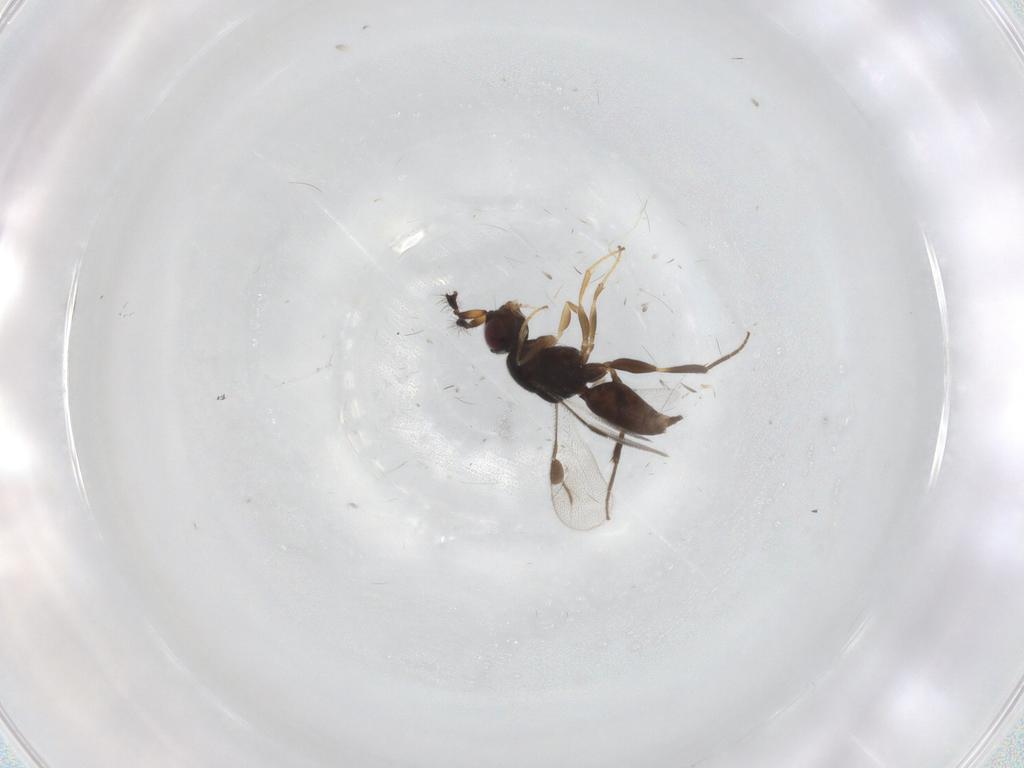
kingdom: Animalia
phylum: Arthropoda
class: Insecta
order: Hymenoptera
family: Megaspilidae
